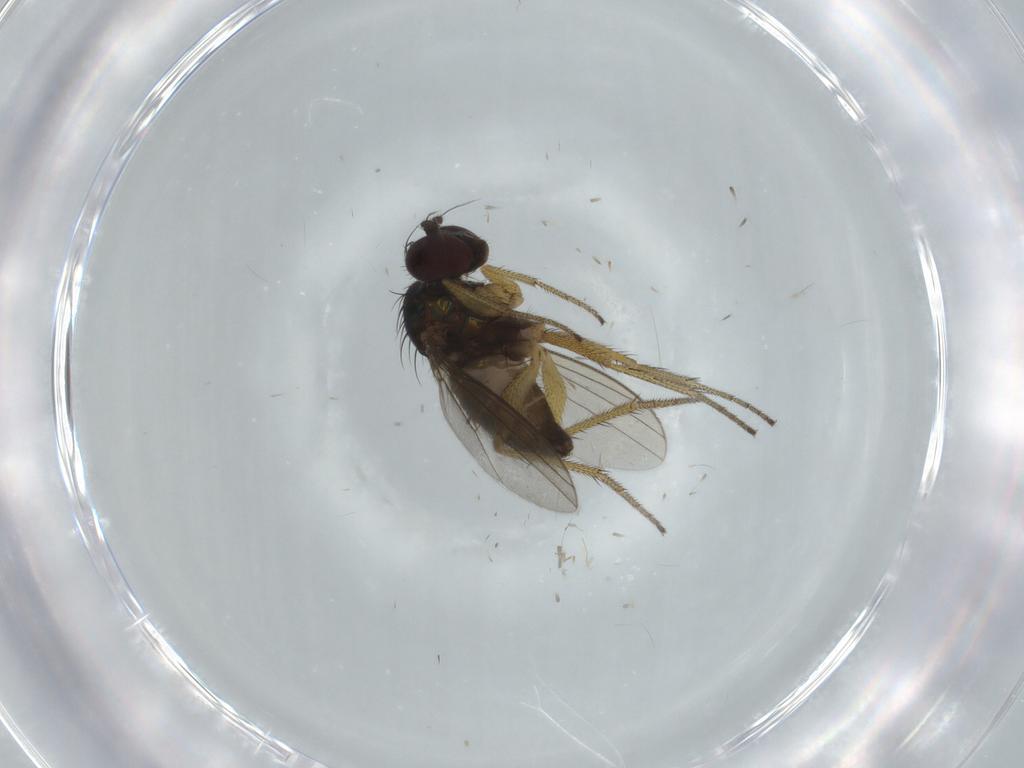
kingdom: Animalia
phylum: Arthropoda
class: Insecta
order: Diptera
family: Dolichopodidae
